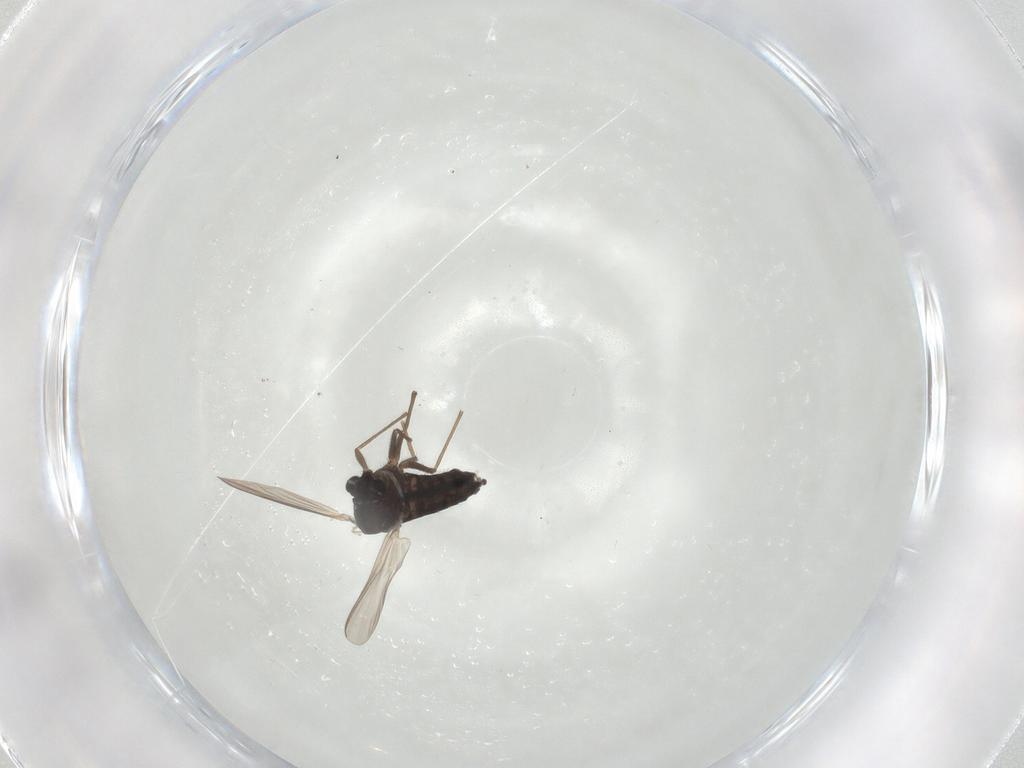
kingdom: Animalia
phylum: Arthropoda
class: Insecta
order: Diptera
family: Chironomidae
